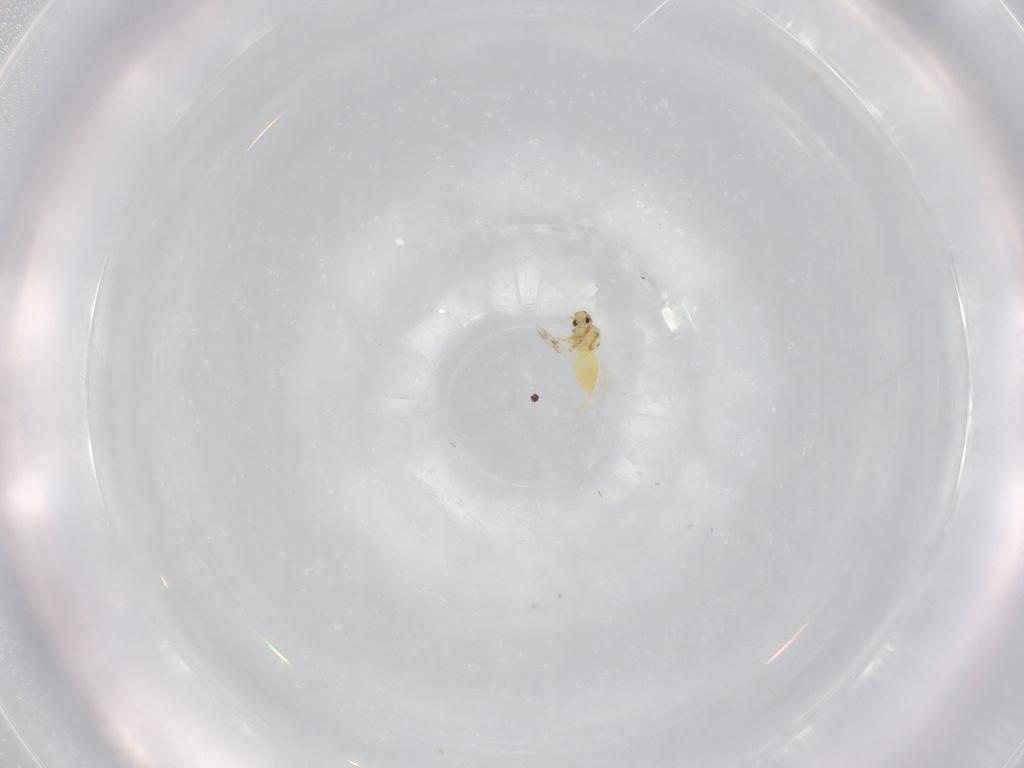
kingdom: Animalia
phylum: Arthropoda
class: Insecta
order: Hemiptera
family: Aleyrodidae
